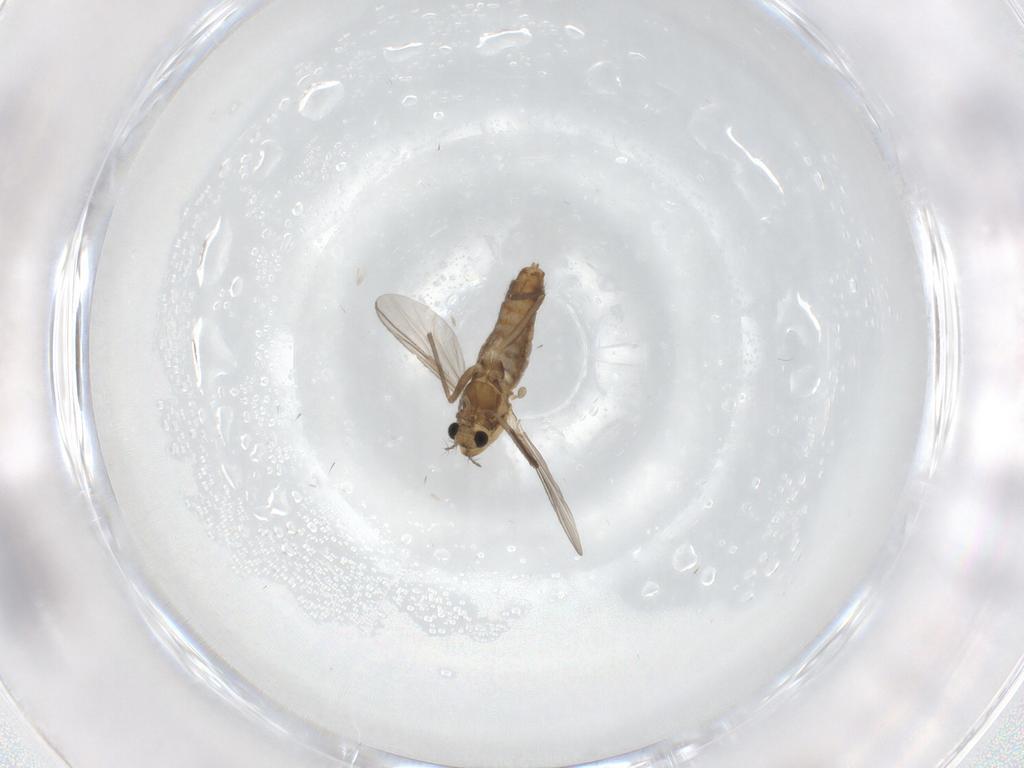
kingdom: Animalia
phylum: Arthropoda
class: Insecta
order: Diptera
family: Chironomidae
